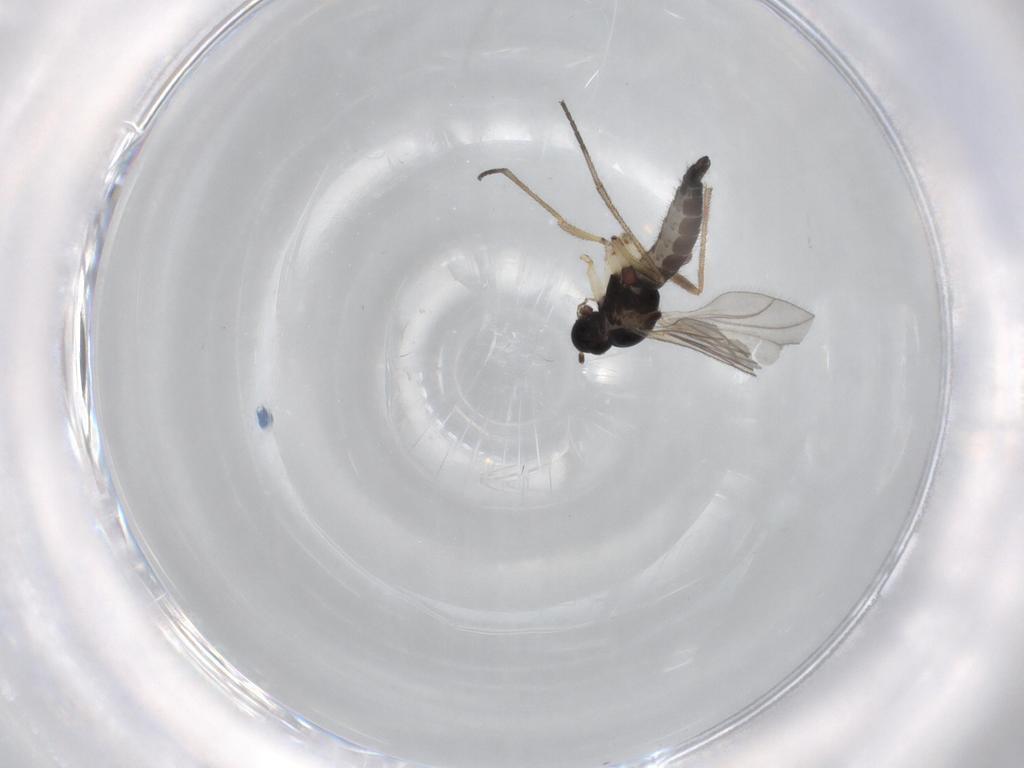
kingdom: Animalia
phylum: Arthropoda
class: Insecta
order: Diptera
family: Sciaridae
